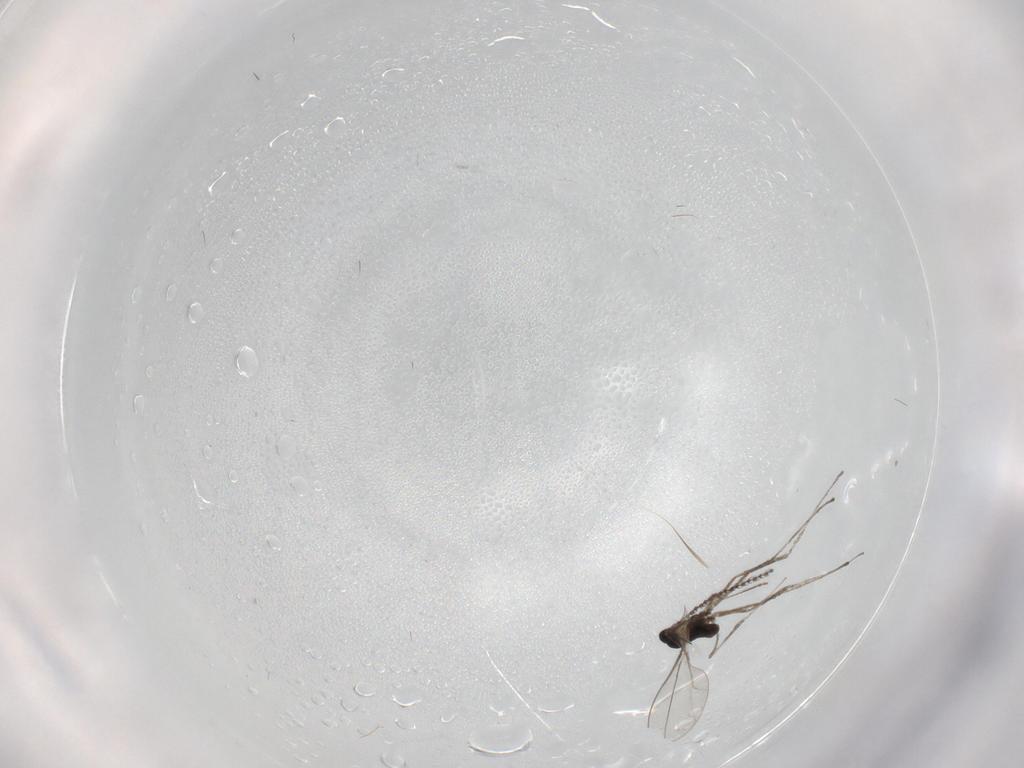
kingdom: Animalia
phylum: Arthropoda
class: Insecta
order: Diptera
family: Cecidomyiidae
